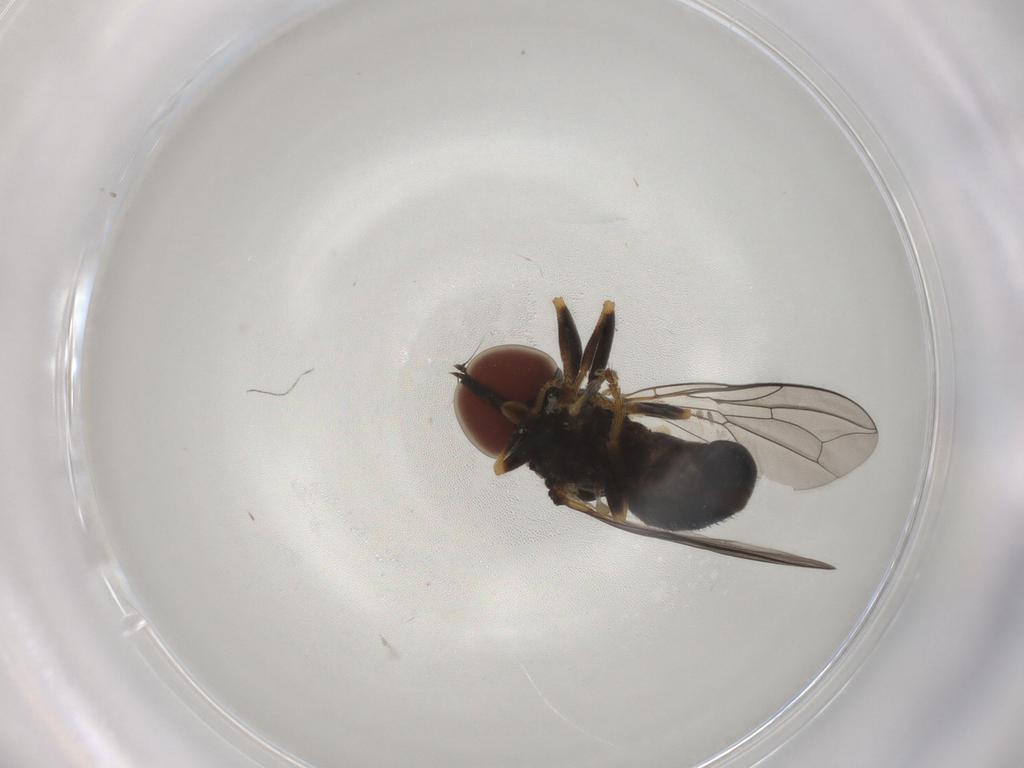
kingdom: Animalia
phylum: Arthropoda
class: Insecta
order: Diptera
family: Pipunculidae
